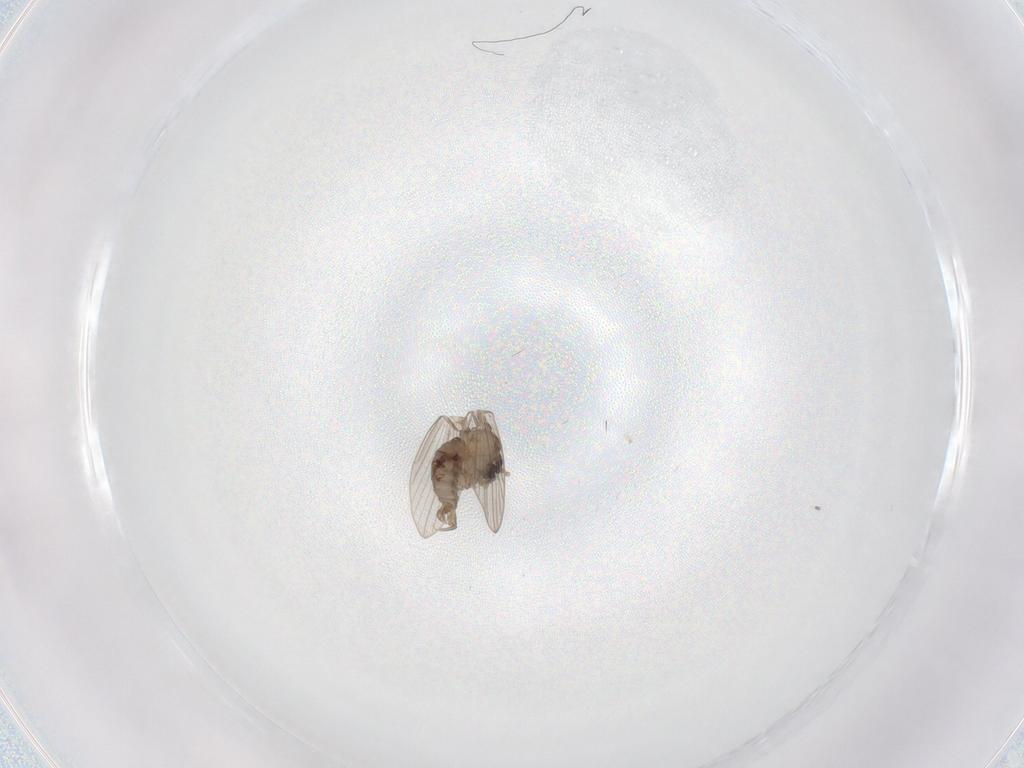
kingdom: Animalia
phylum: Arthropoda
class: Insecta
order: Diptera
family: Psychodidae
